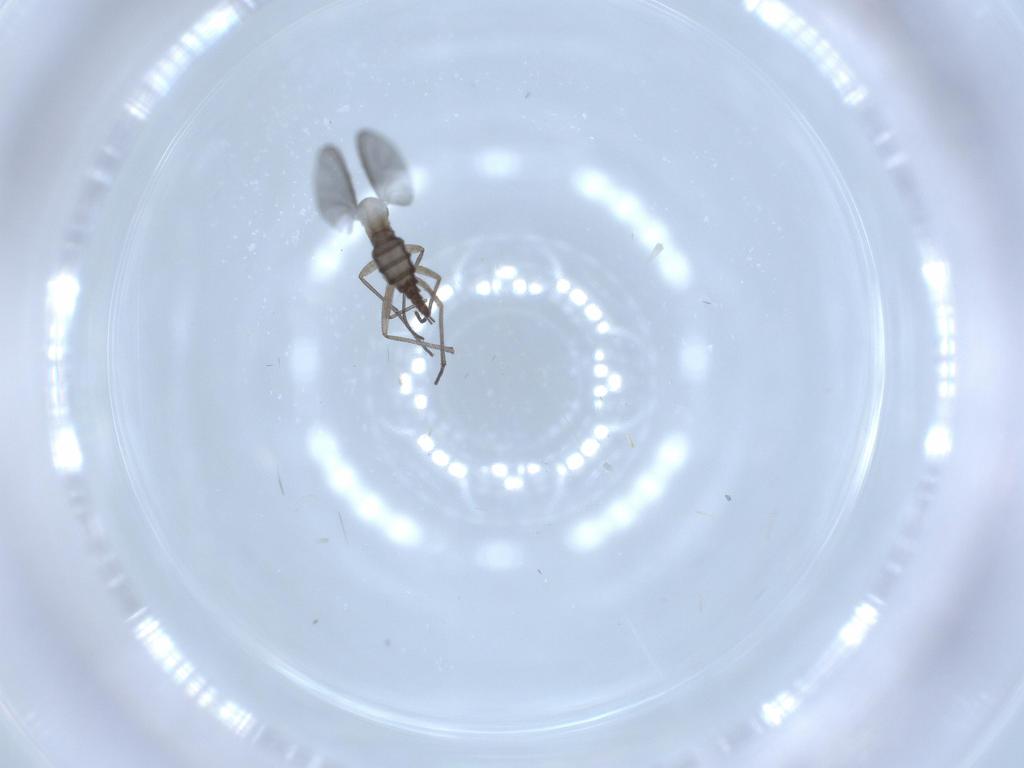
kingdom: Animalia
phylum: Arthropoda
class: Insecta
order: Diptera
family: Sciaridae
